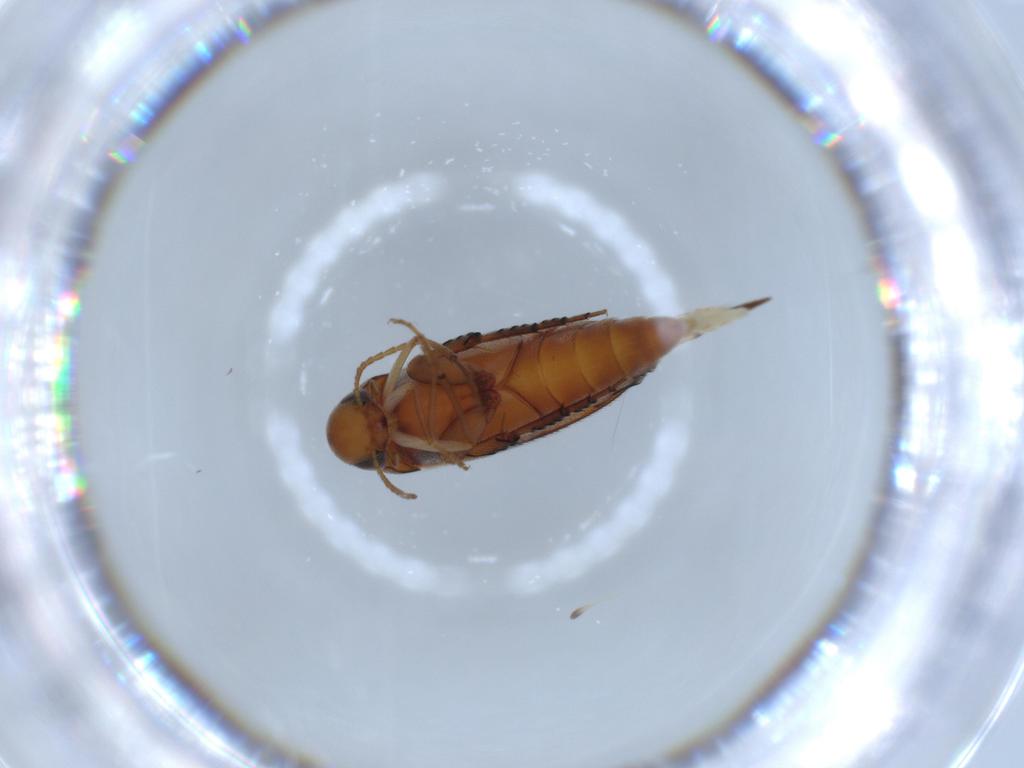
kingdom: Animalia
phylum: Arthropoda
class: Insecta
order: Coleoptera
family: Mordellidae
